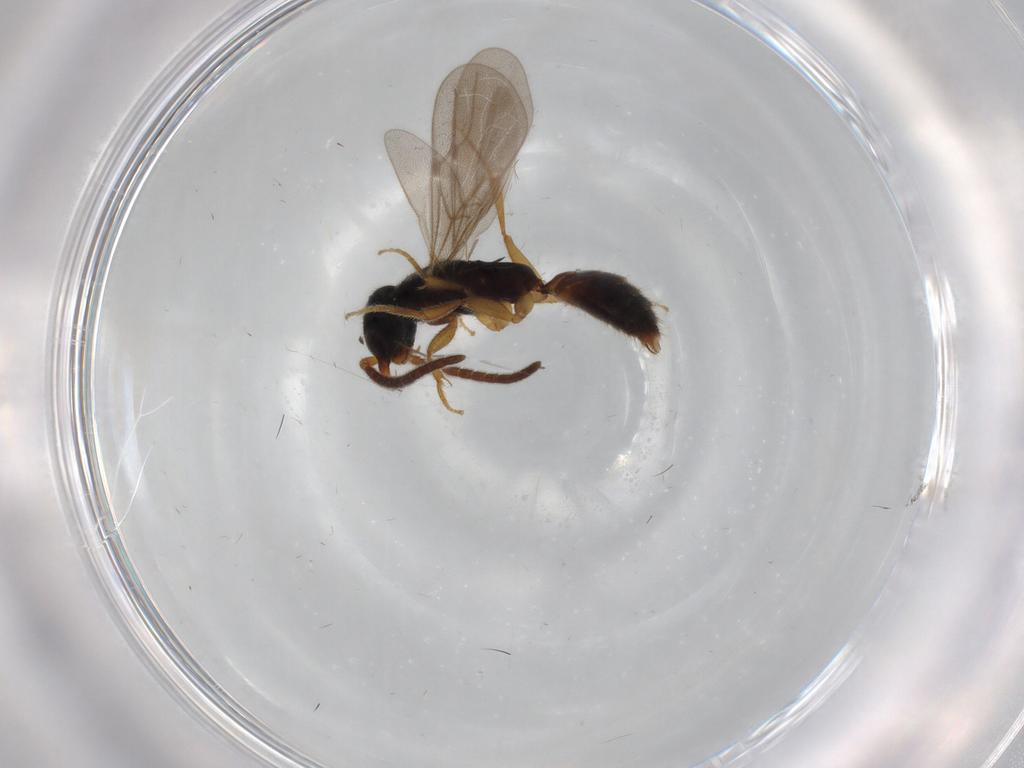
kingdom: Animalia
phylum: Arthropoda
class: Insecta
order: Hymenoptera
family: Bethylidae
